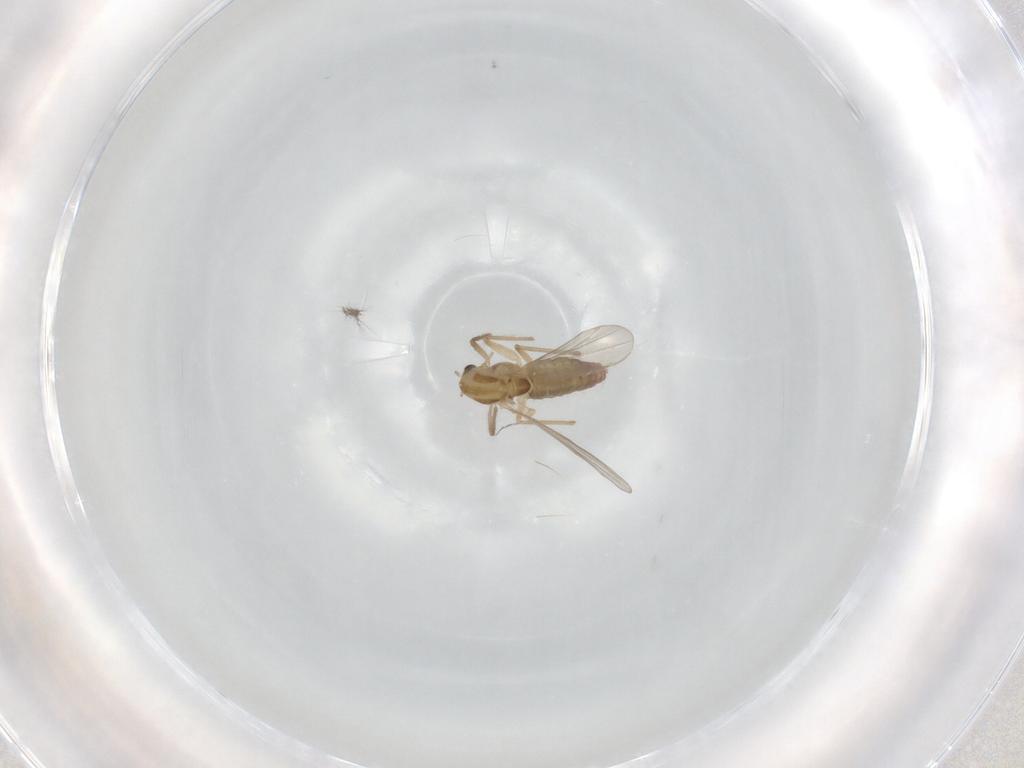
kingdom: Animalia
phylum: Arthropoda
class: Insecta
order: Diptera
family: Chironomidae
